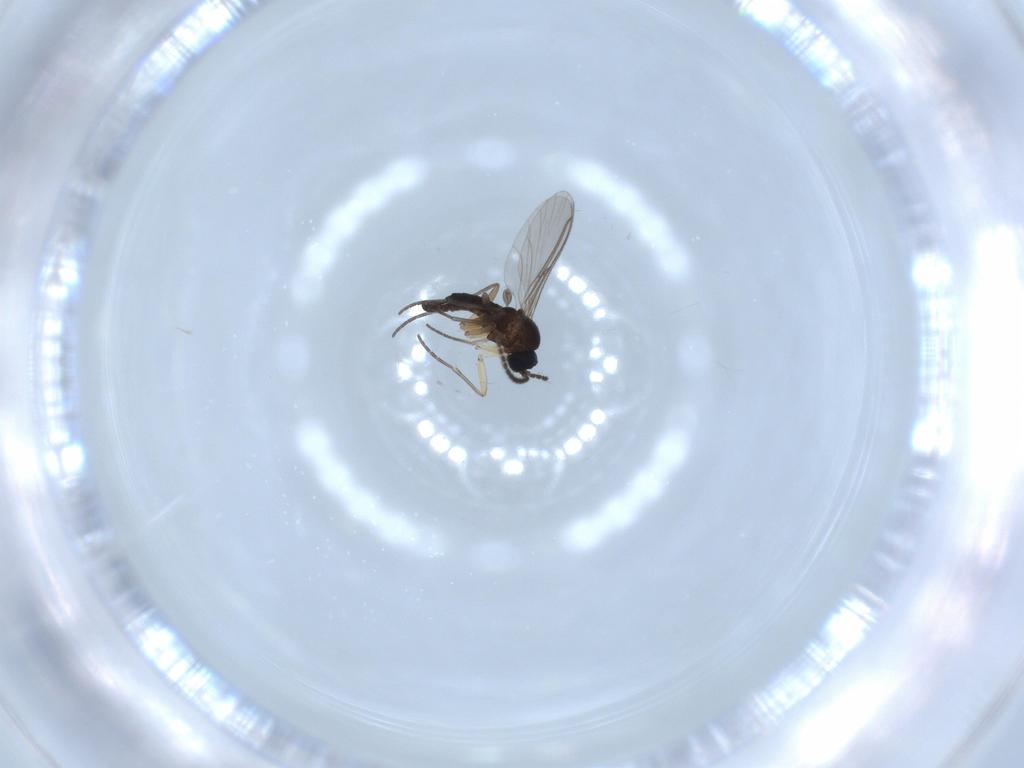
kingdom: Animalia
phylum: Arthropoda
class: Insecta
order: Diptera
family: Sciaridae
